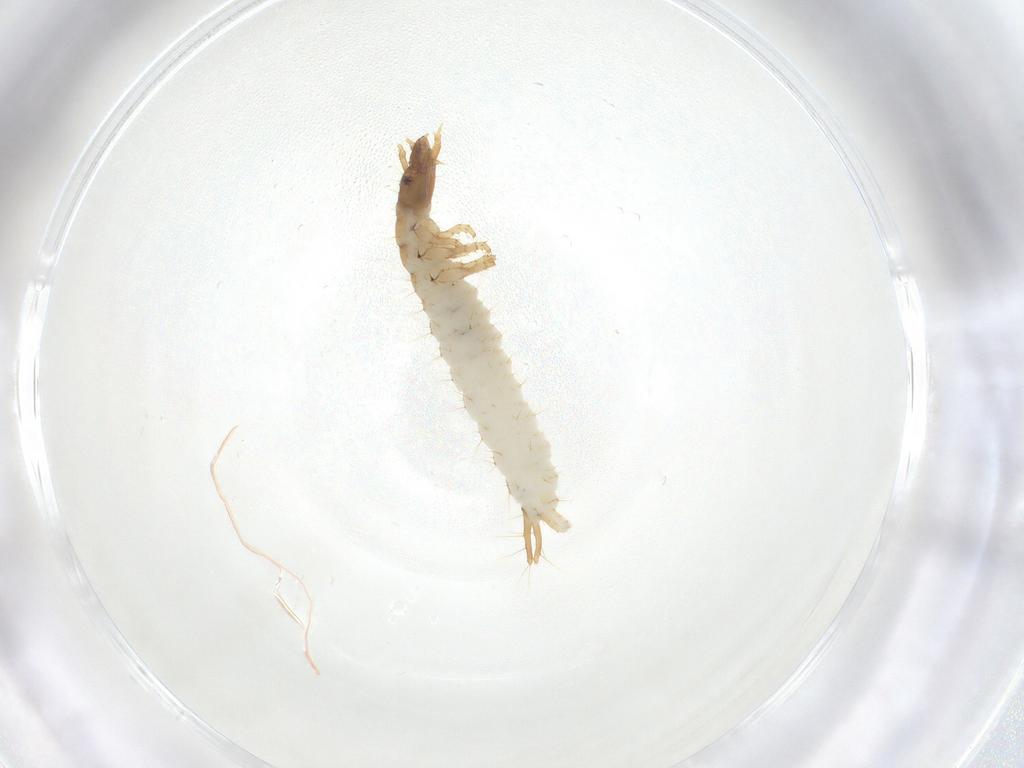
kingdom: Animalia
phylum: Arthropoda
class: Insecta
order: Coleoptera
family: Carabidae
